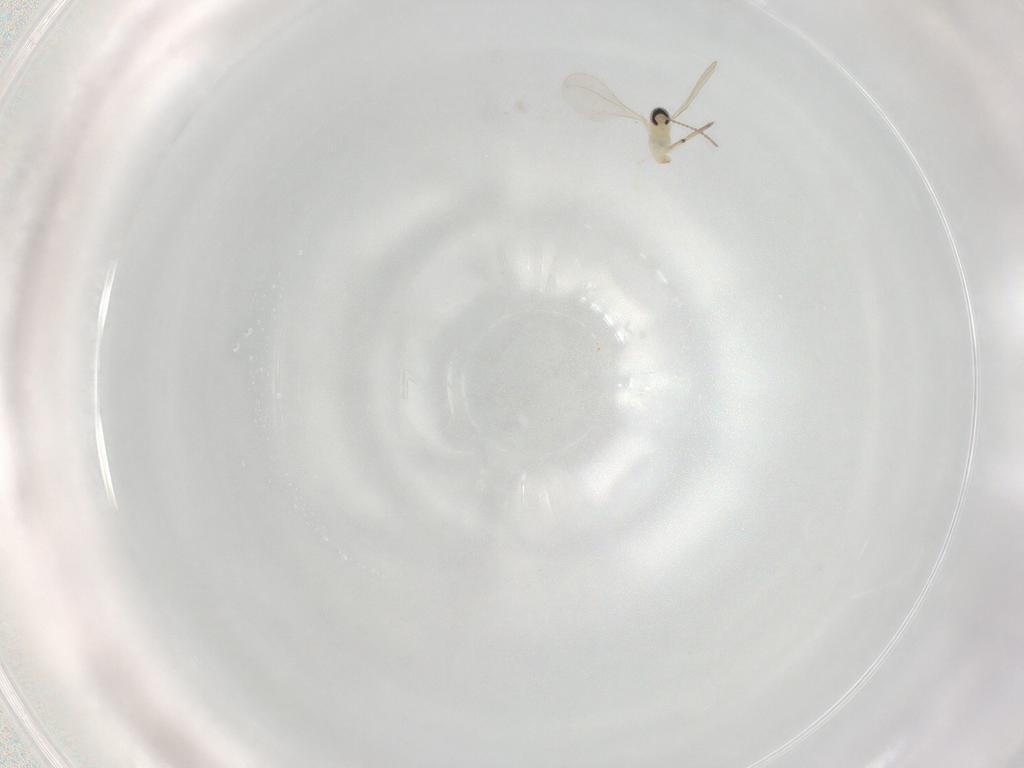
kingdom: Animalia
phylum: Arthropoda
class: Insecta
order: Diptera
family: Syrphidae
